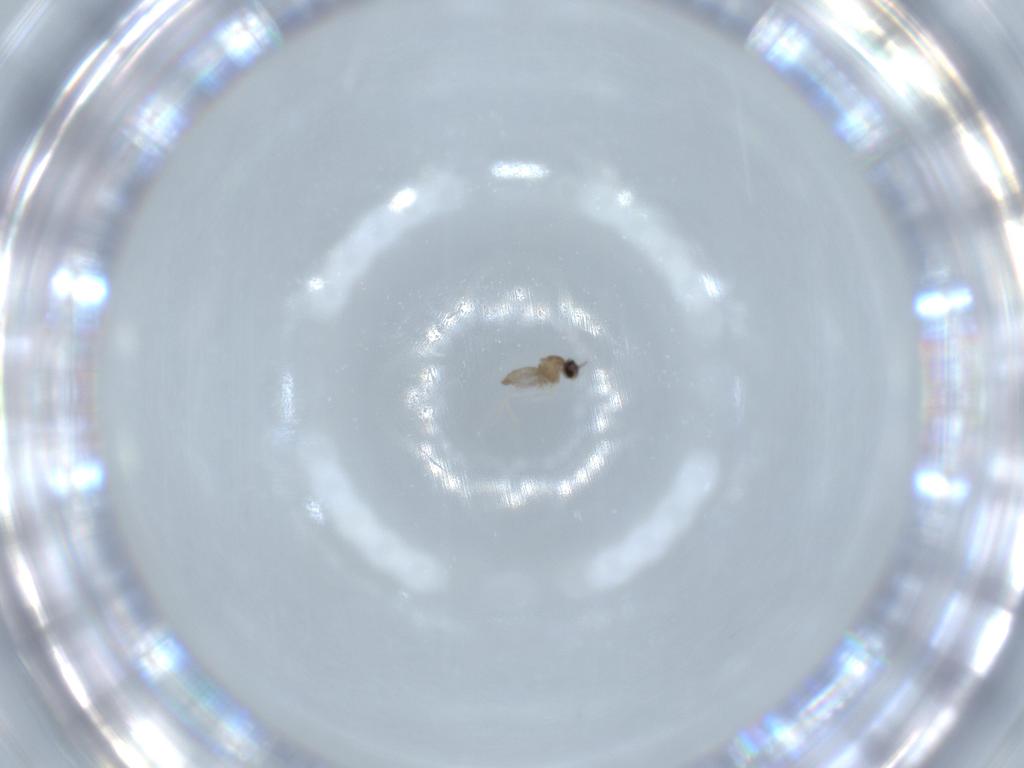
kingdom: Animalia
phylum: Arthropoda
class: Insecta
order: Diptera
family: Cecidomyiidae
